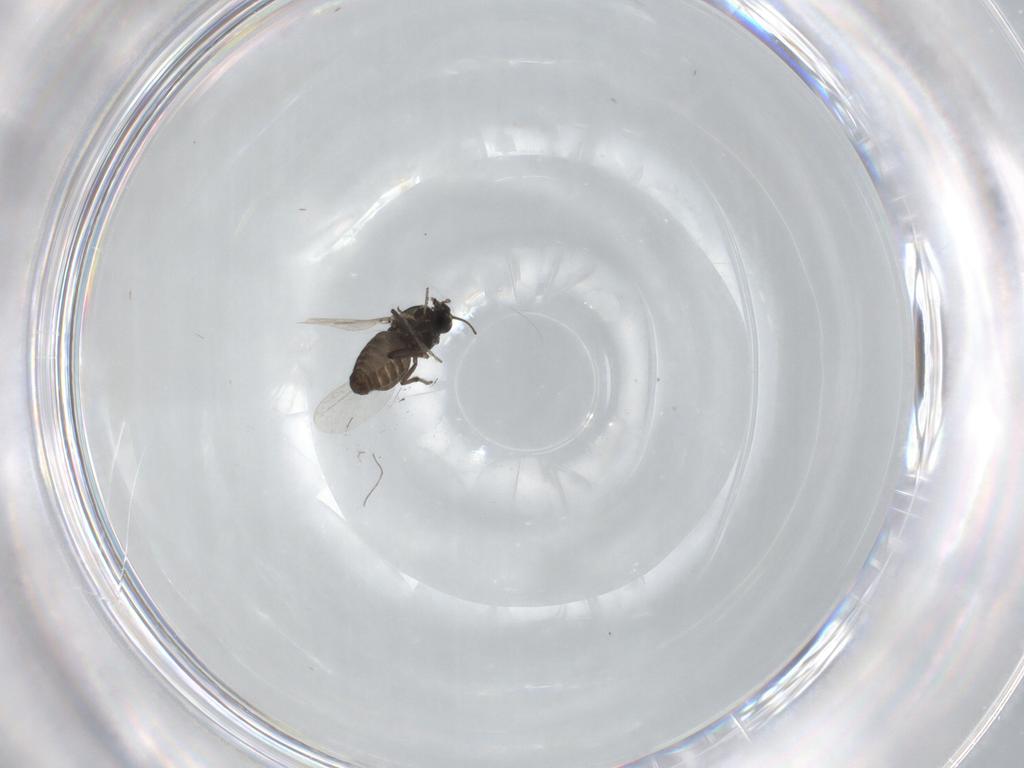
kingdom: Animalia
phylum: Arthropoda
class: Insecta
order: Diptera
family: Ceratopogonidae
